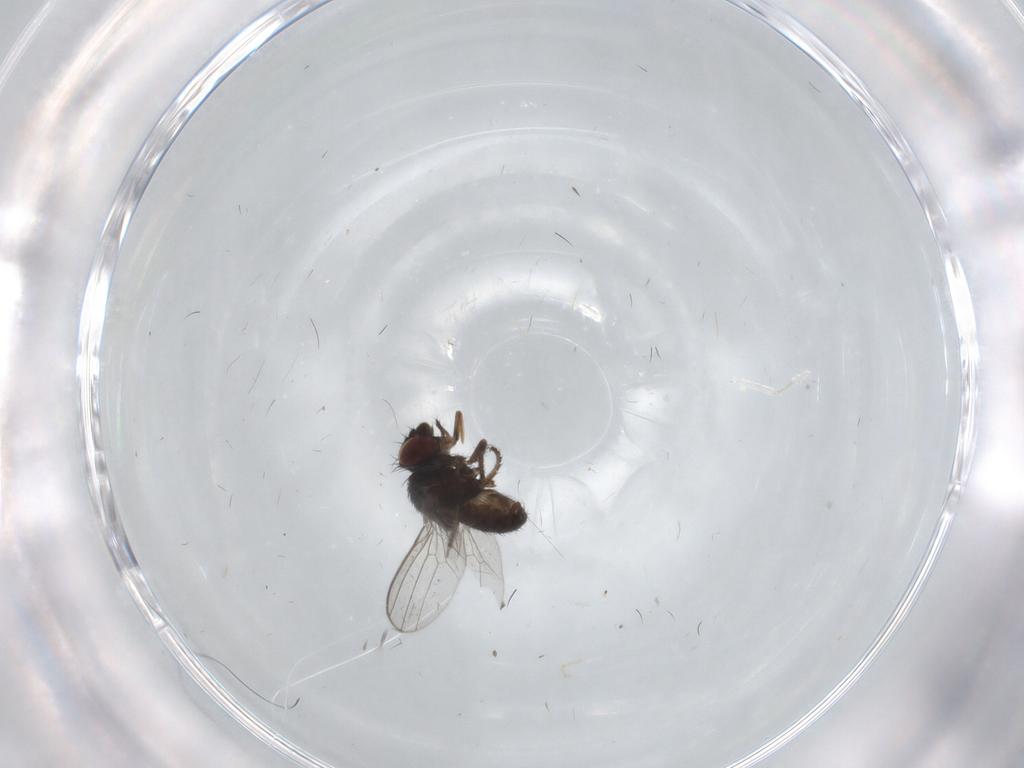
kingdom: Animalia
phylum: Arthropoda
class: Insecta
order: Diptera
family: Milichiidae
